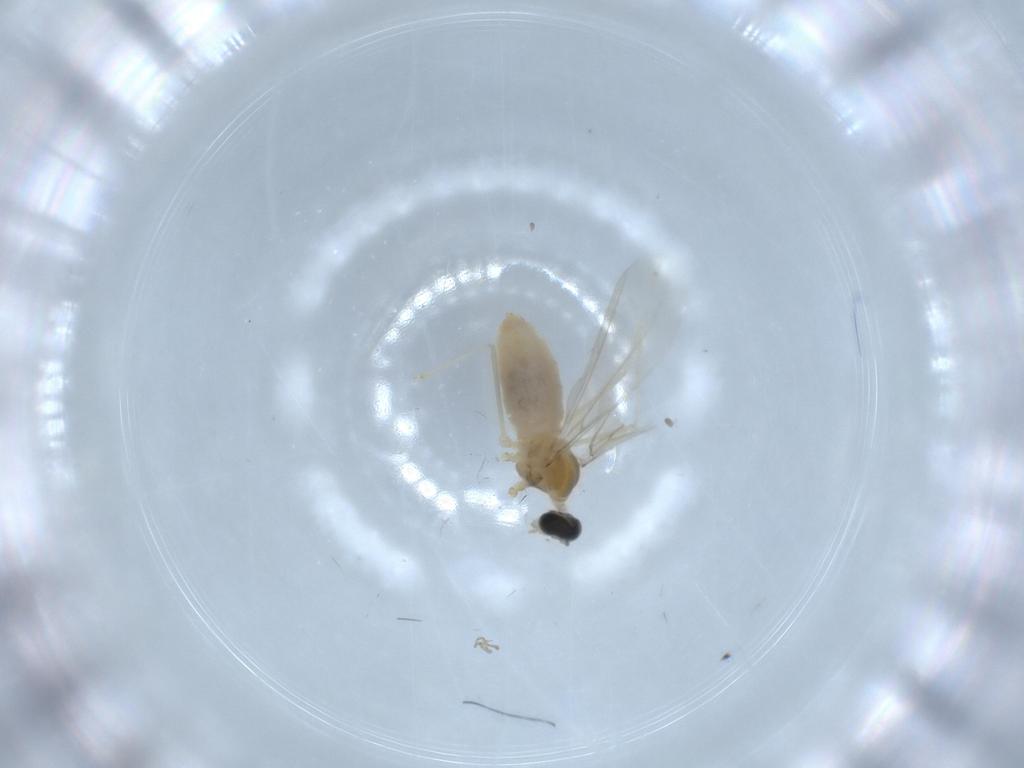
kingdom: Animalia
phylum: Arthropoda
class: Insecta
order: Diptera
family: Cecidomyiidae
